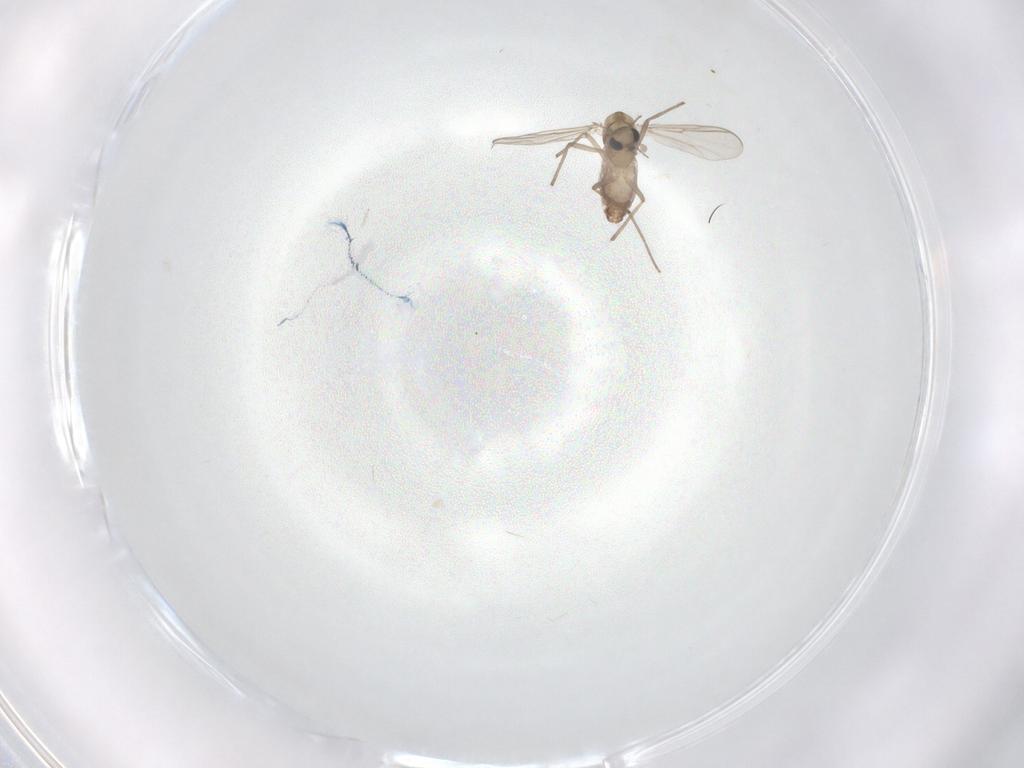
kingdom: Animalia
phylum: Arthropoda
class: Insecta
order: Diptera
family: Chironomidae
